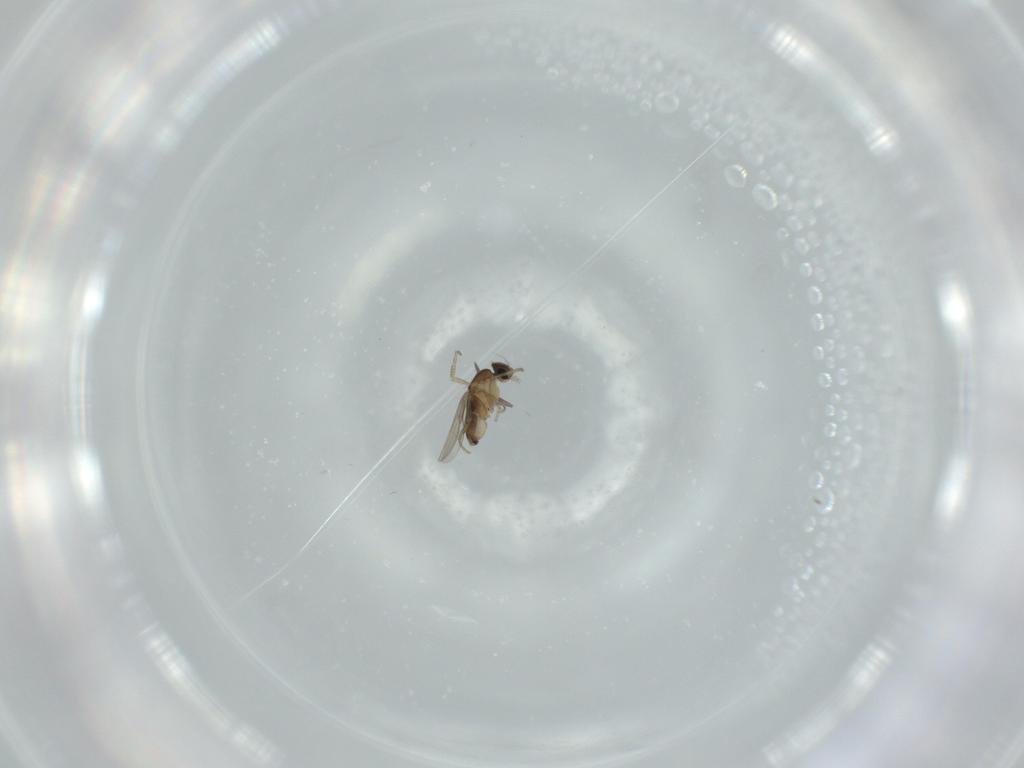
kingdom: Animalia
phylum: Arthropoda
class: Insecta
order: Diptera
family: Phoridae
